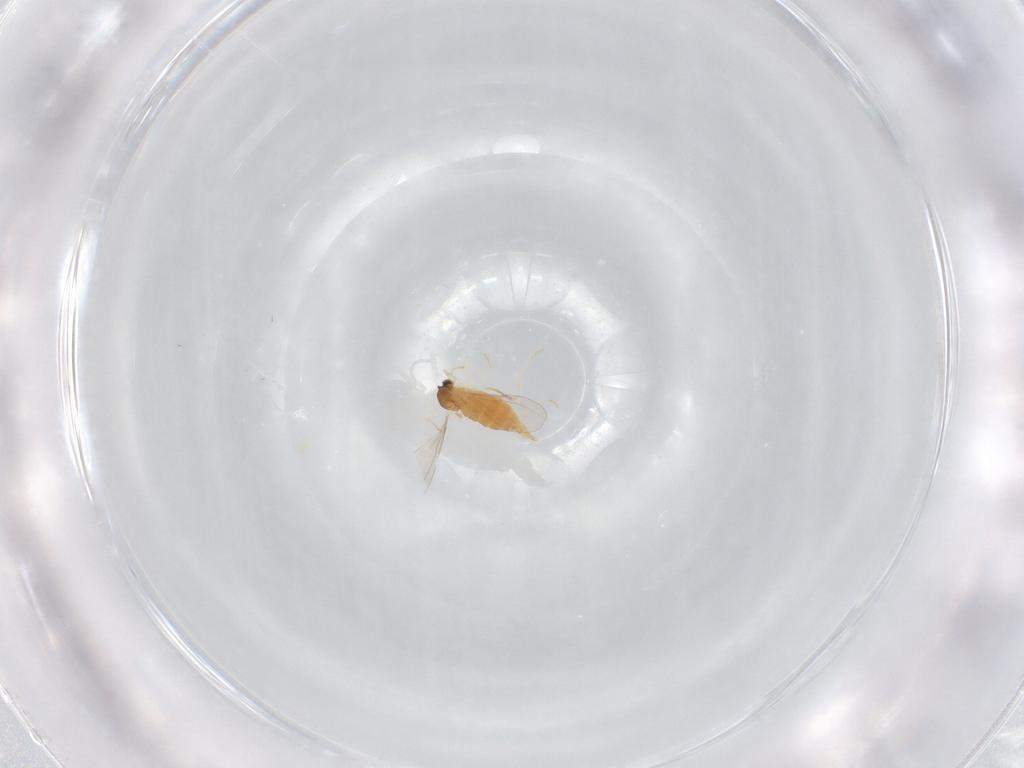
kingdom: Animalia
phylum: Arthropoda
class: Insecta
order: Diptera
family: Cecidomyiidae
